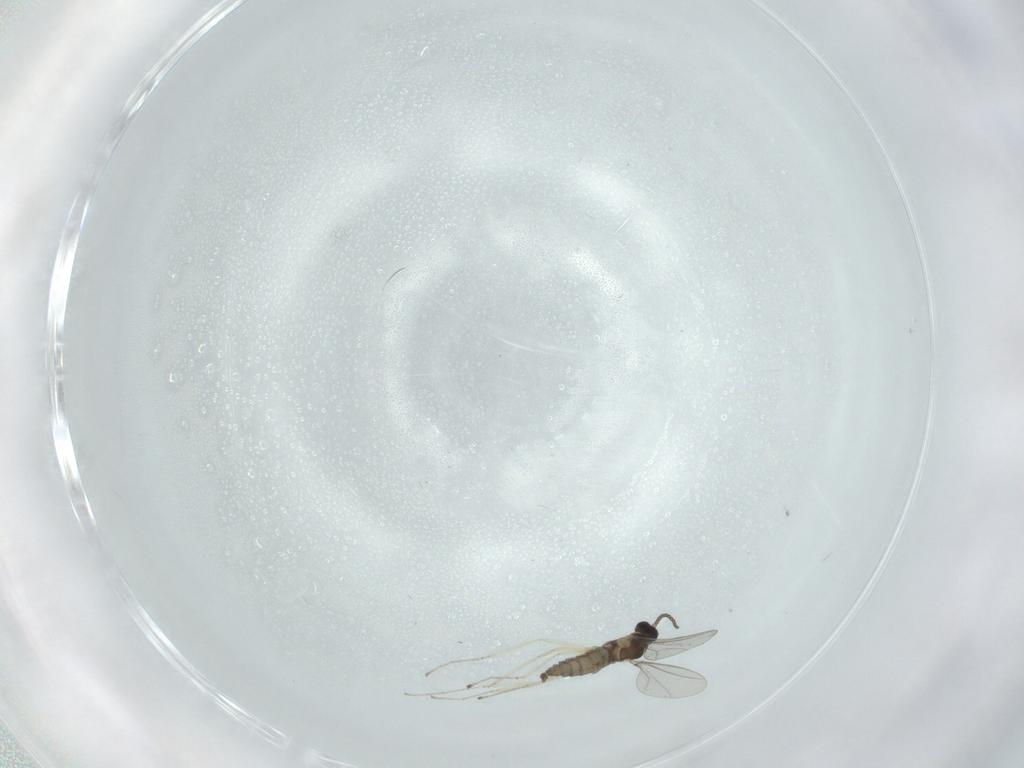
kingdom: Animalia
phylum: Arthropoda
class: Insecta
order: Diptera
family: Cecidomyiidae
